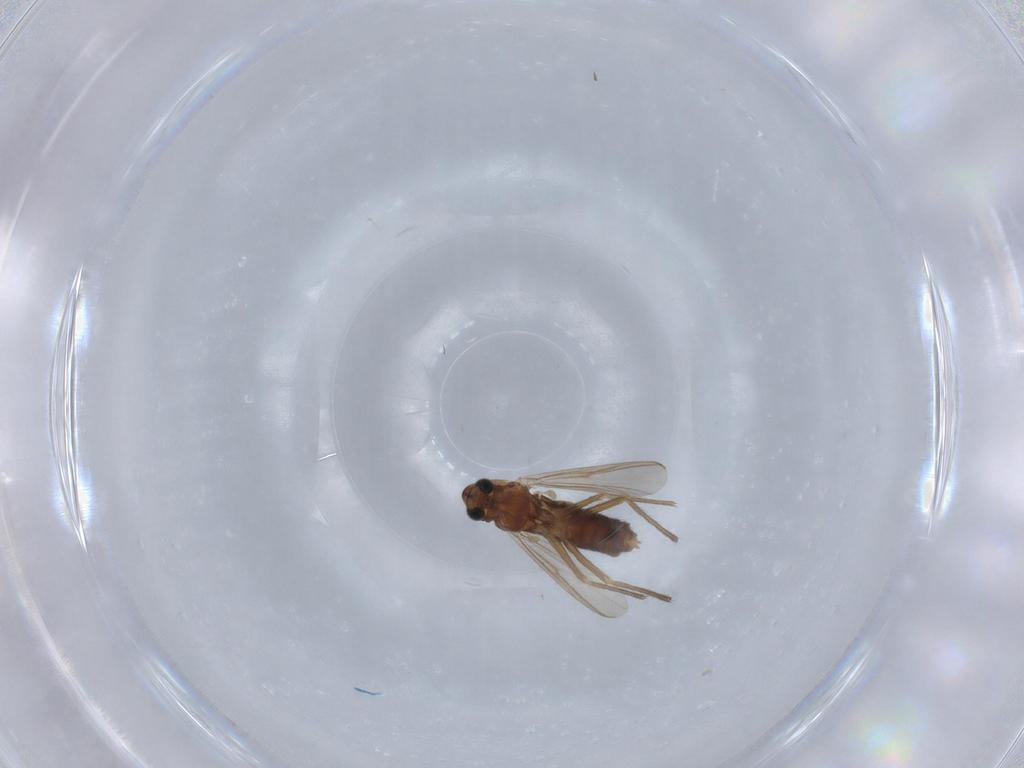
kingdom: Animalia
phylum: Arthropoda
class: Insecta
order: Diptera
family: Chironomidae
